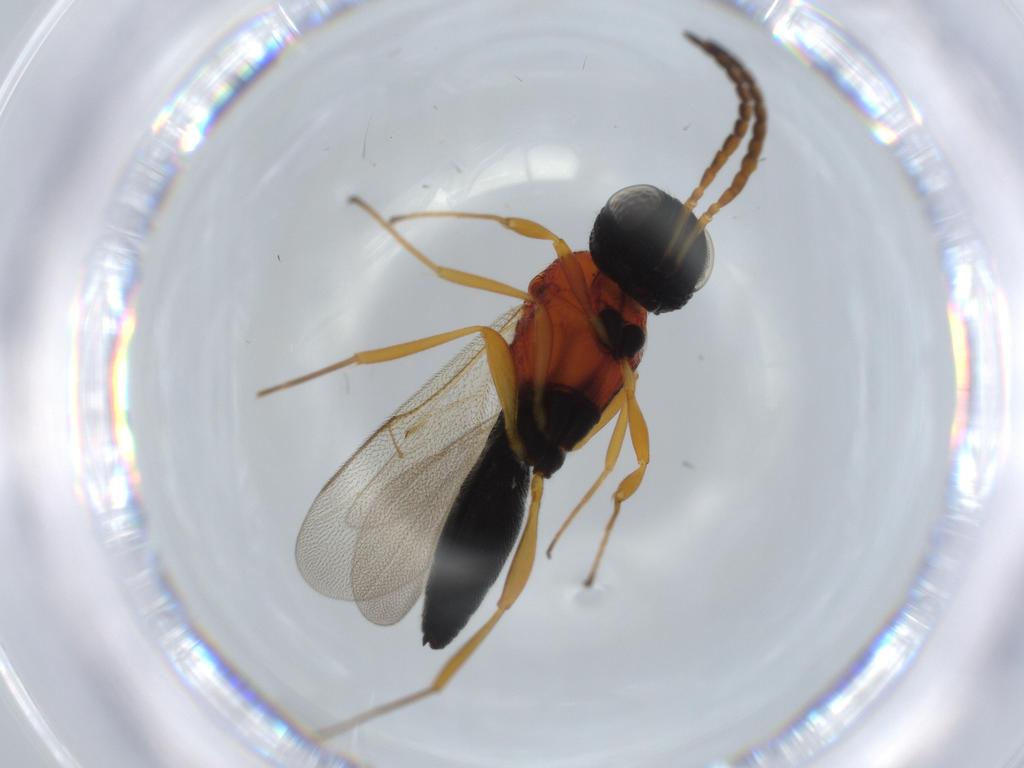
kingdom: Animalia
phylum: Arthropoda
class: Insecta
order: Hymenoptera
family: Scelionidae
